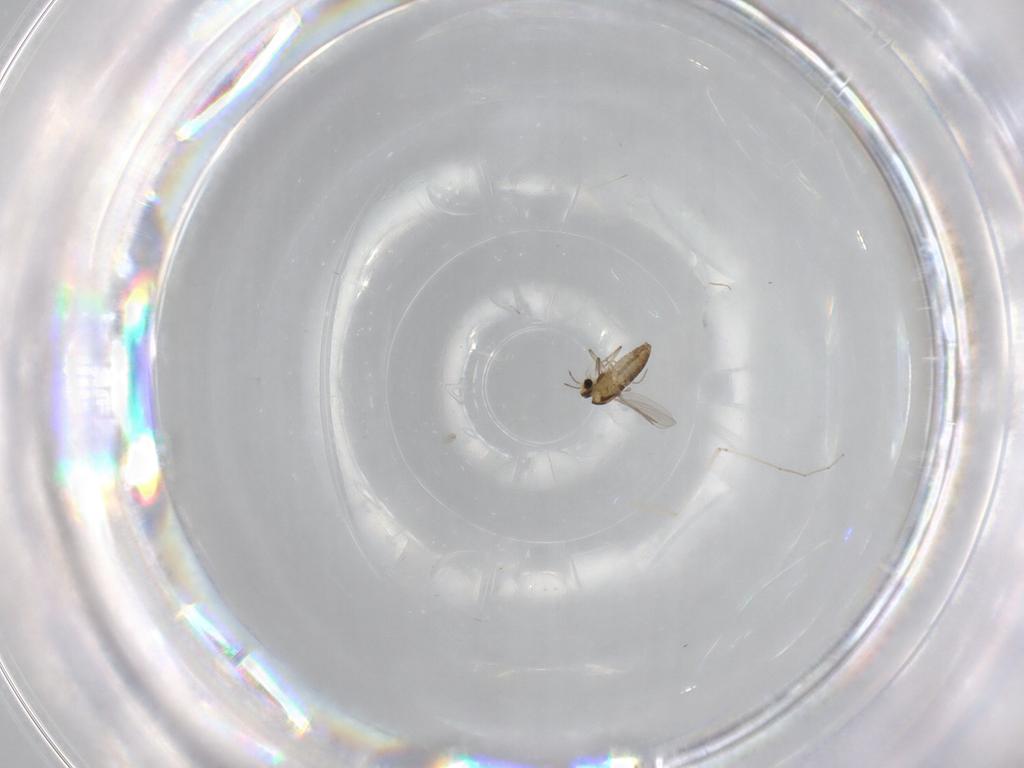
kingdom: Animalia
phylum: Arthropoda
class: Insecta
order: Diptera
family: Chironomidae
